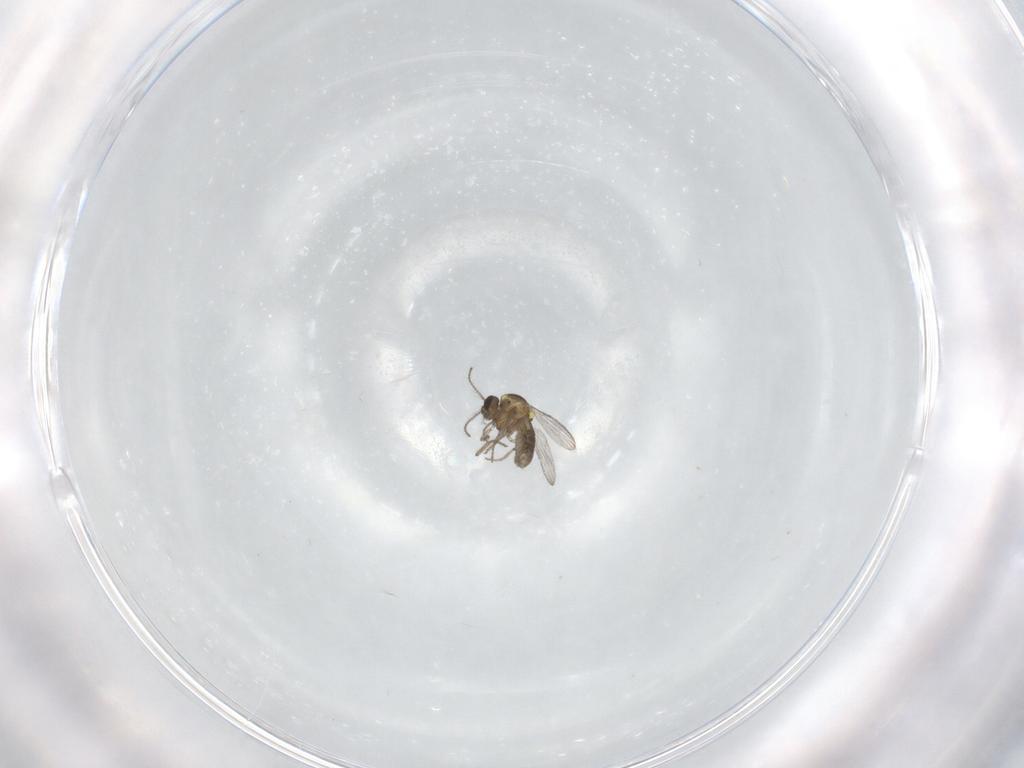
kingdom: Animalia
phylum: Arthropoda
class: Insecta
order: Diptera
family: Ceratopogonidae
